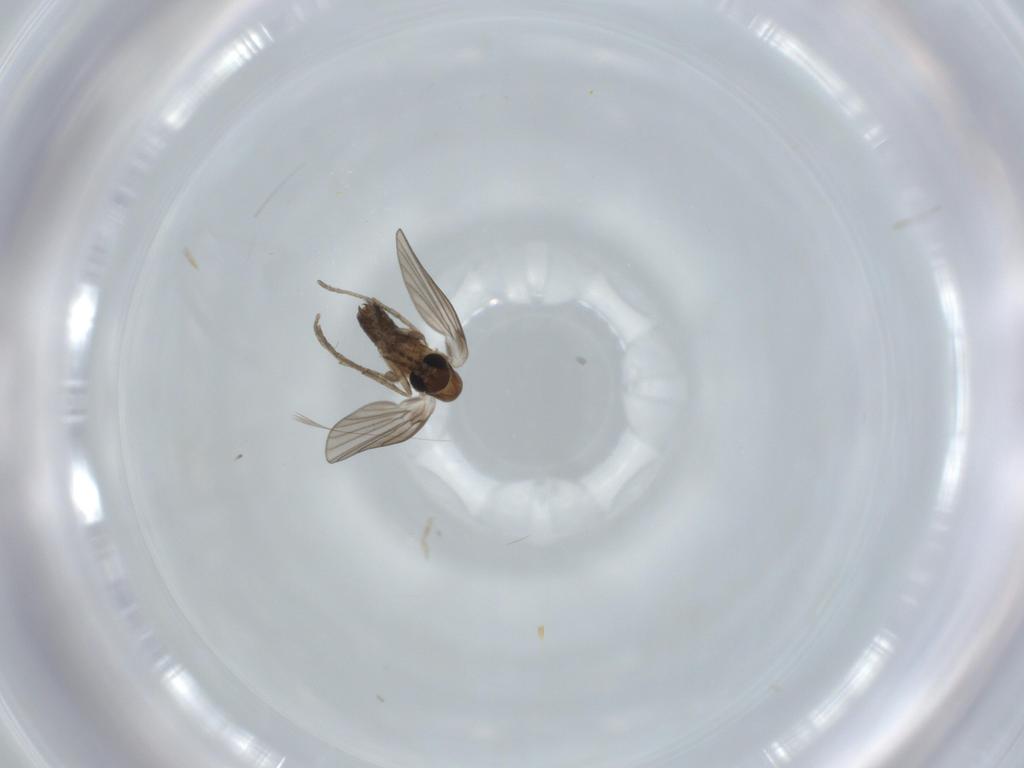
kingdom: Animalia
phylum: Arthropoda
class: Insecta
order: Diptera
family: Psychodidae
